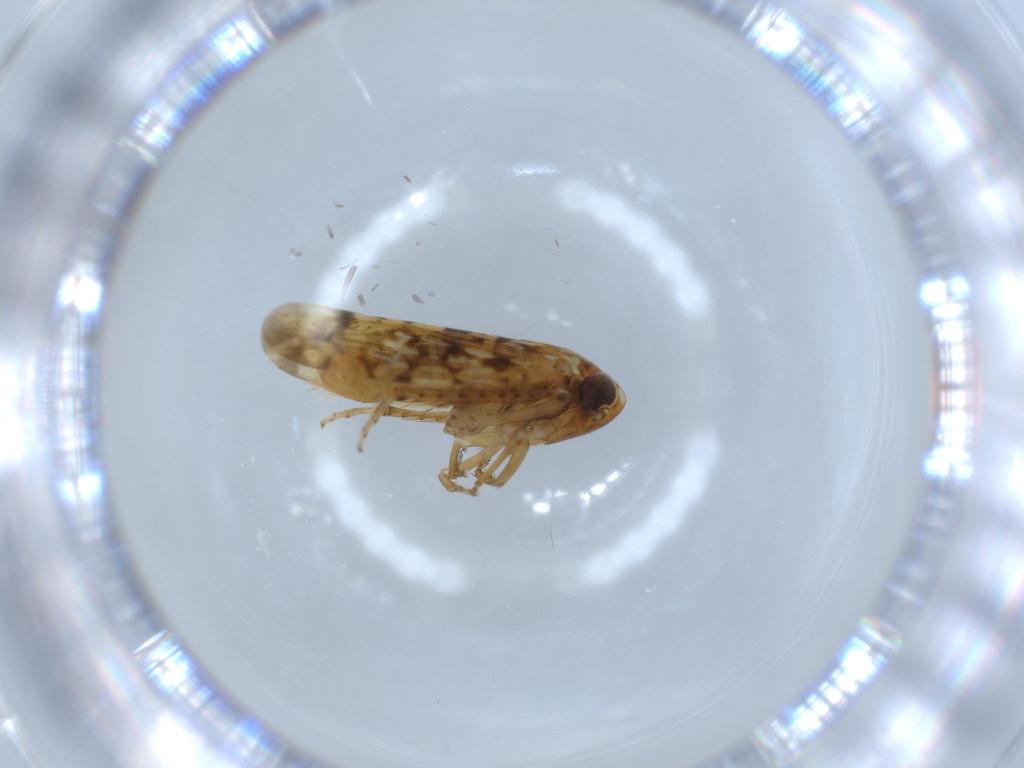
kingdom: Animalia
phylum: Arthropoda
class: Insecta
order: Hemiptera
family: Cicadellidae
